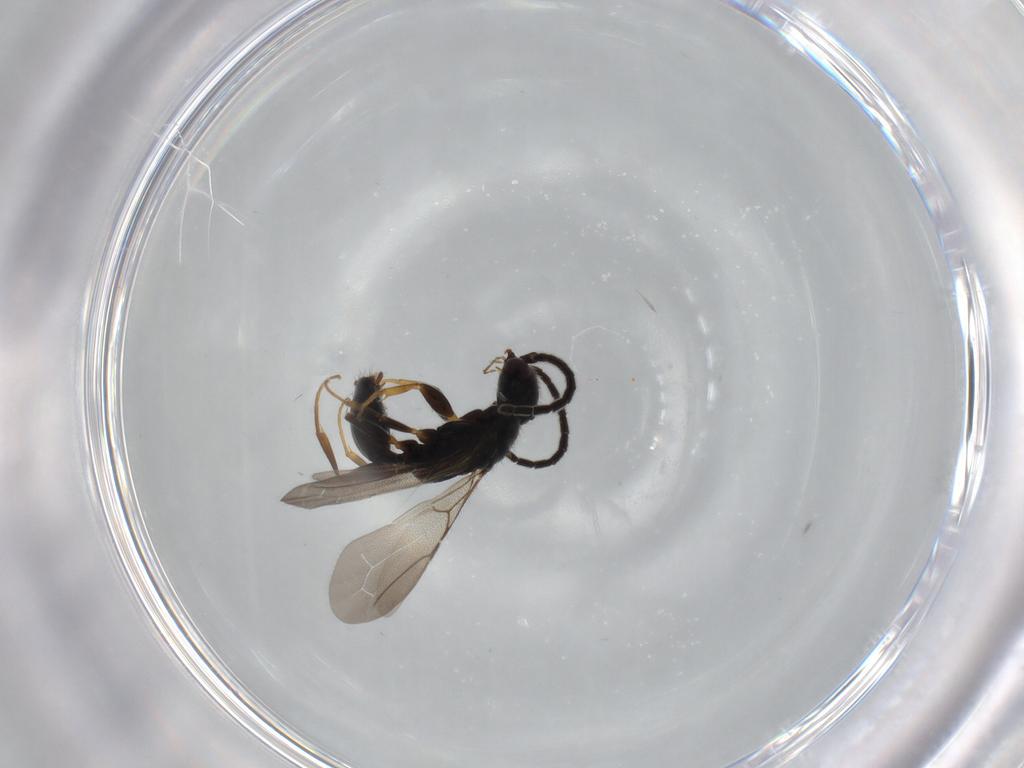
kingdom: Animalia
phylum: Arthropoda
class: Insecta
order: Hymenoptera
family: Bethylidae
